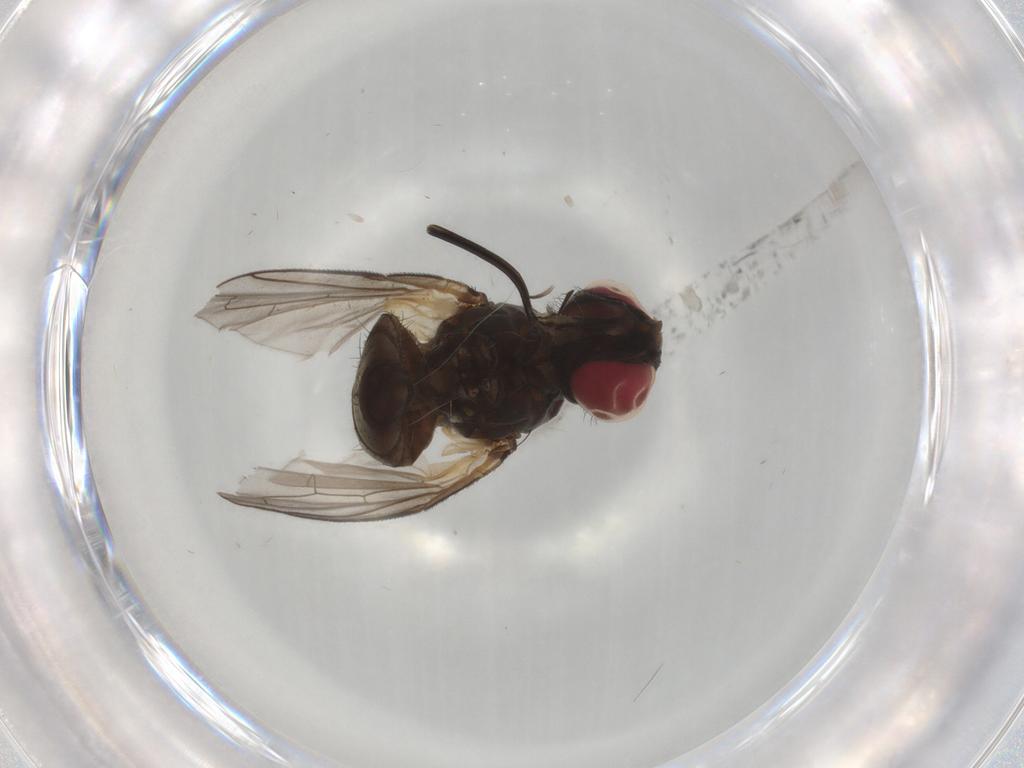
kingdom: Animalia
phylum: Arthropoda
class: Insecta
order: Diptera
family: Tachinidae
